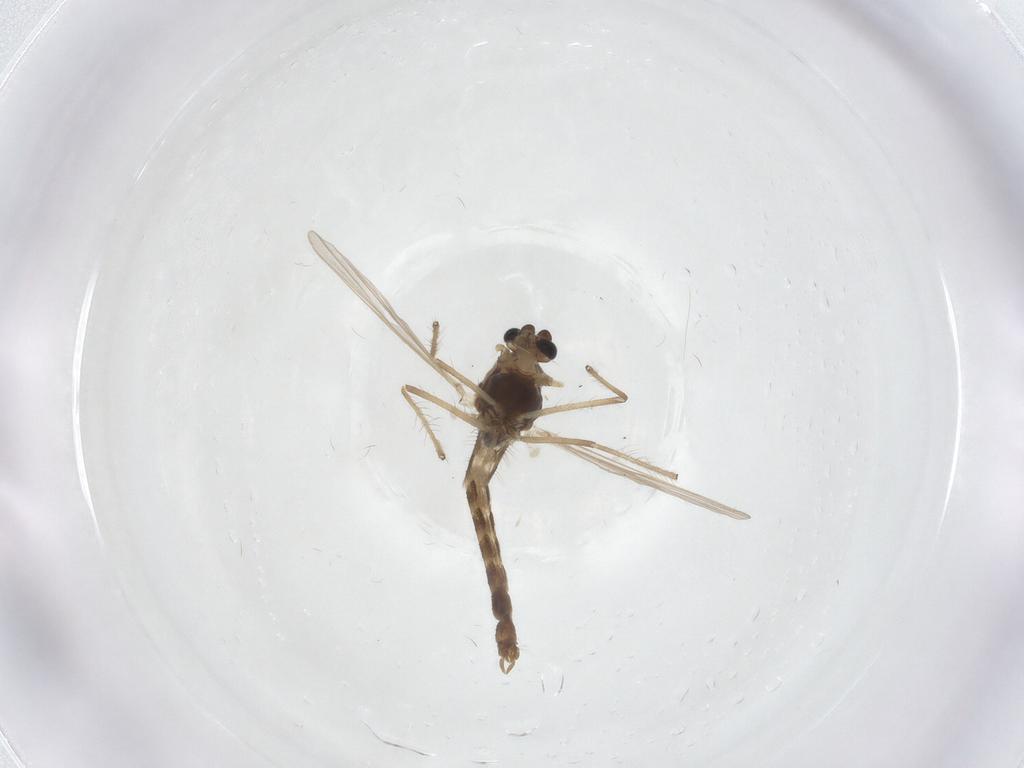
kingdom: Animalia
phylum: Arthropoda
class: Insecta
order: Diptera
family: Chironomidae
